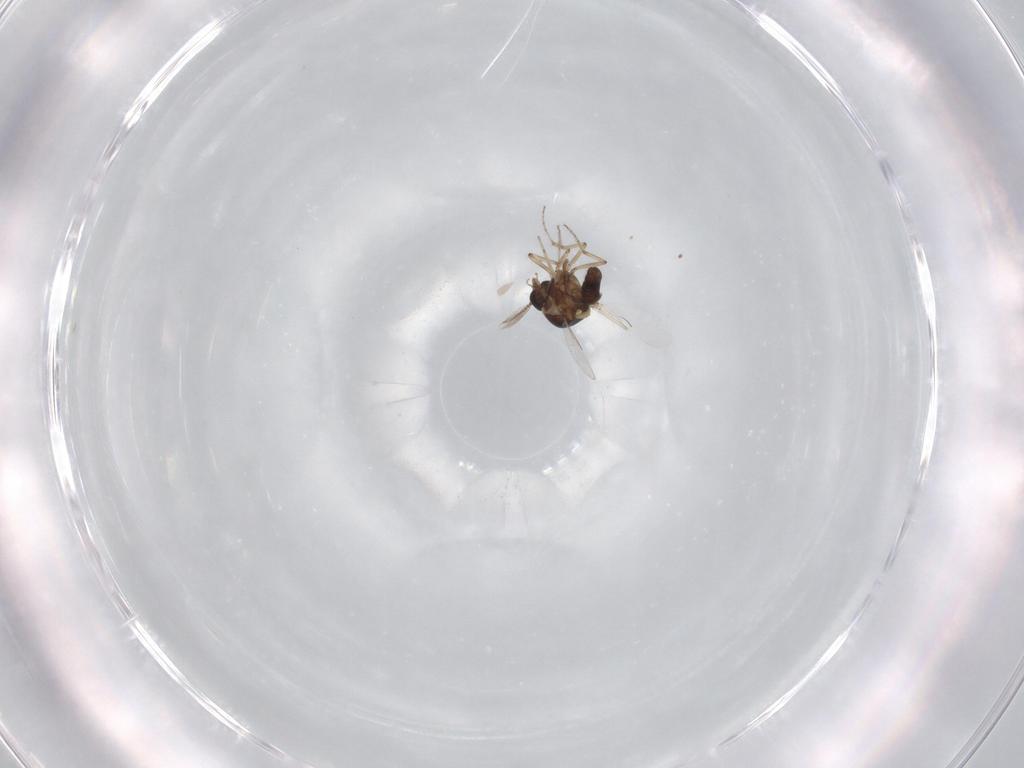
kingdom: Animalia
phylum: Arthropoda
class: Insecta
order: Diptera
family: Ceratopogonidae
